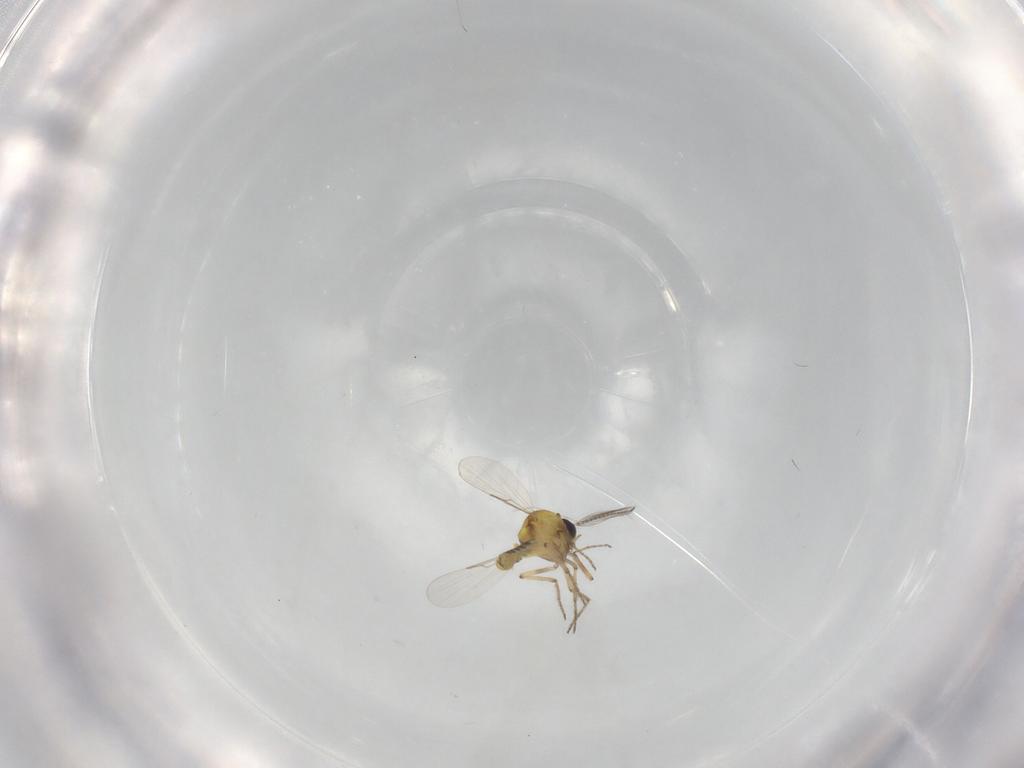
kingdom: Animalia
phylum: Arthropoda
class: Insecta
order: Diptera
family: Ceratopogonidae
